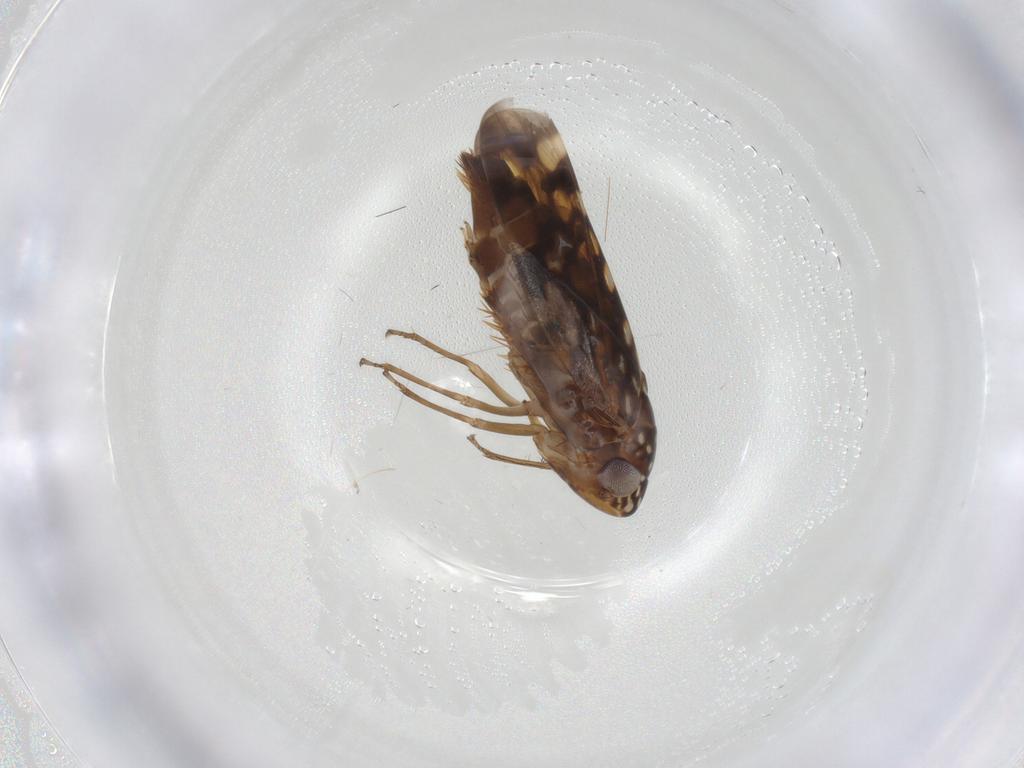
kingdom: Animalia
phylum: Arthropoda
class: Insecta
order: Hemiptera
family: Cicadellidae
